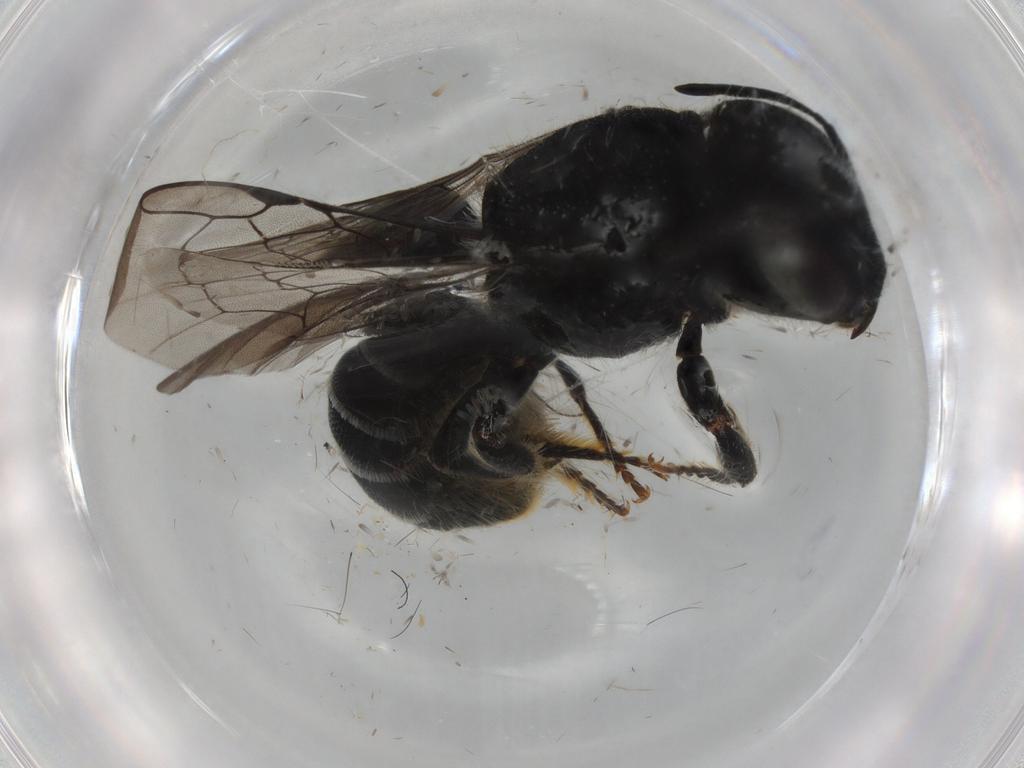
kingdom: Animalia
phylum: Arthropoda
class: Insecta
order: Hymenoptera
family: Megachilidae
